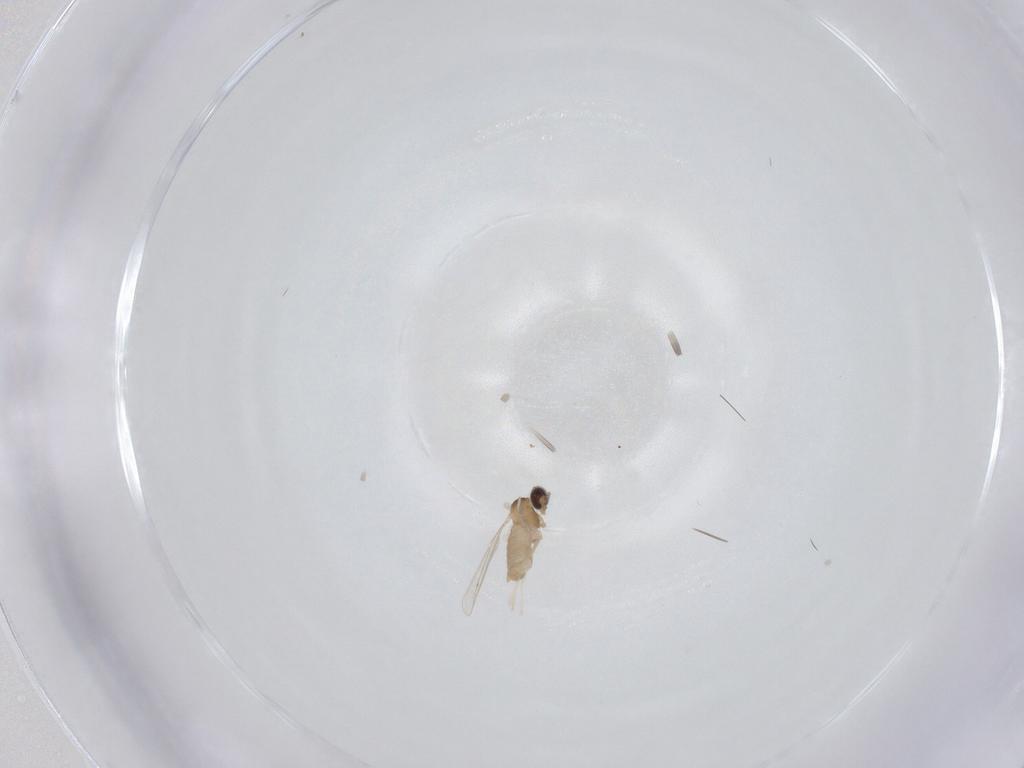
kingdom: Animalia
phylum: Arthropoda
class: Insecta
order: Diptera
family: Cecidomyiidae
